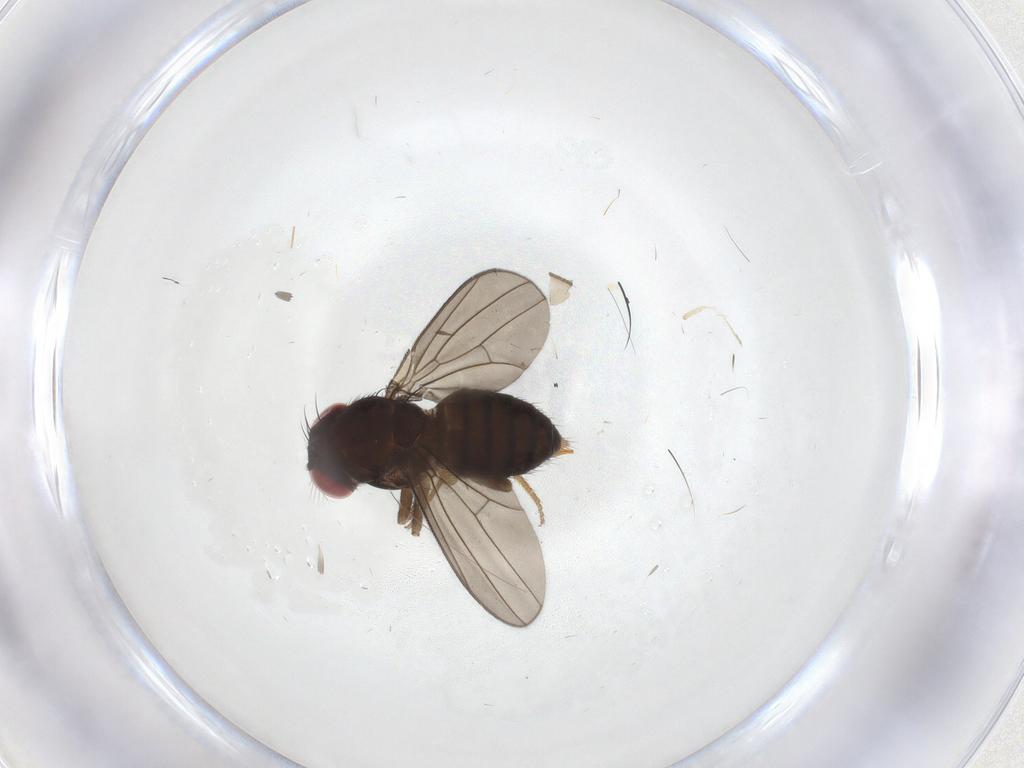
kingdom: Animalia
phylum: Arthropoda
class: Insecta
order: Diptera
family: Drosophilidae
